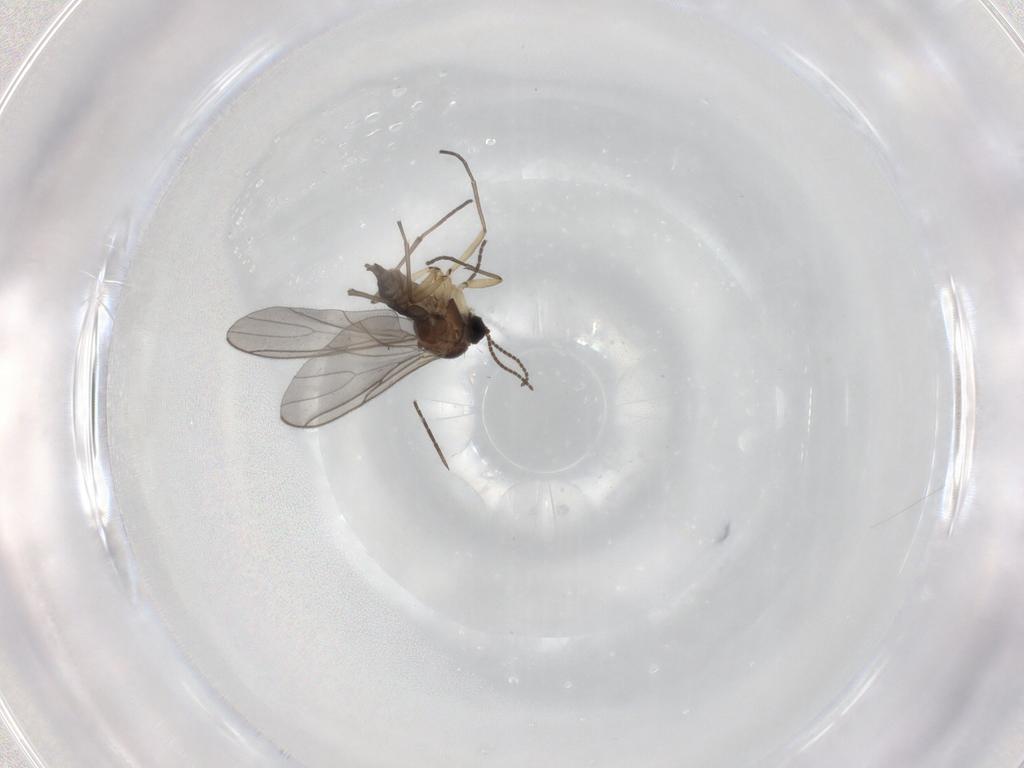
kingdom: Animalia
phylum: Arthropoda
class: Insecta
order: Diptera
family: Sciaridae
